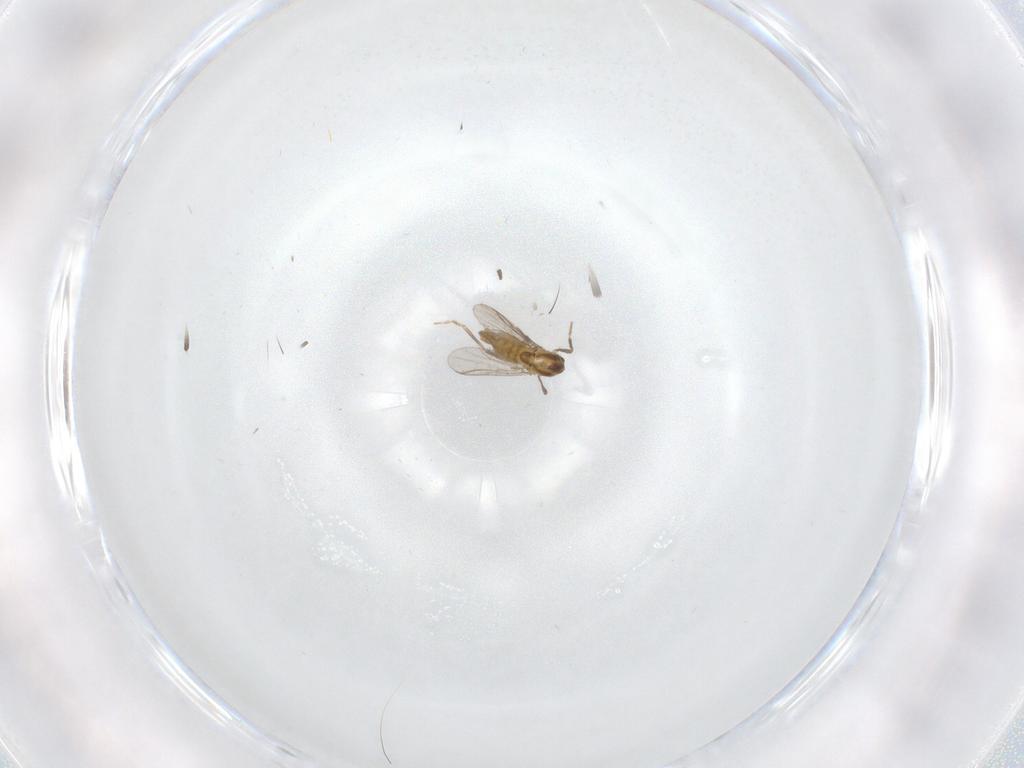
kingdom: Animalia
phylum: Arthropoda
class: Insecta
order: Diptera
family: Chironomidae
